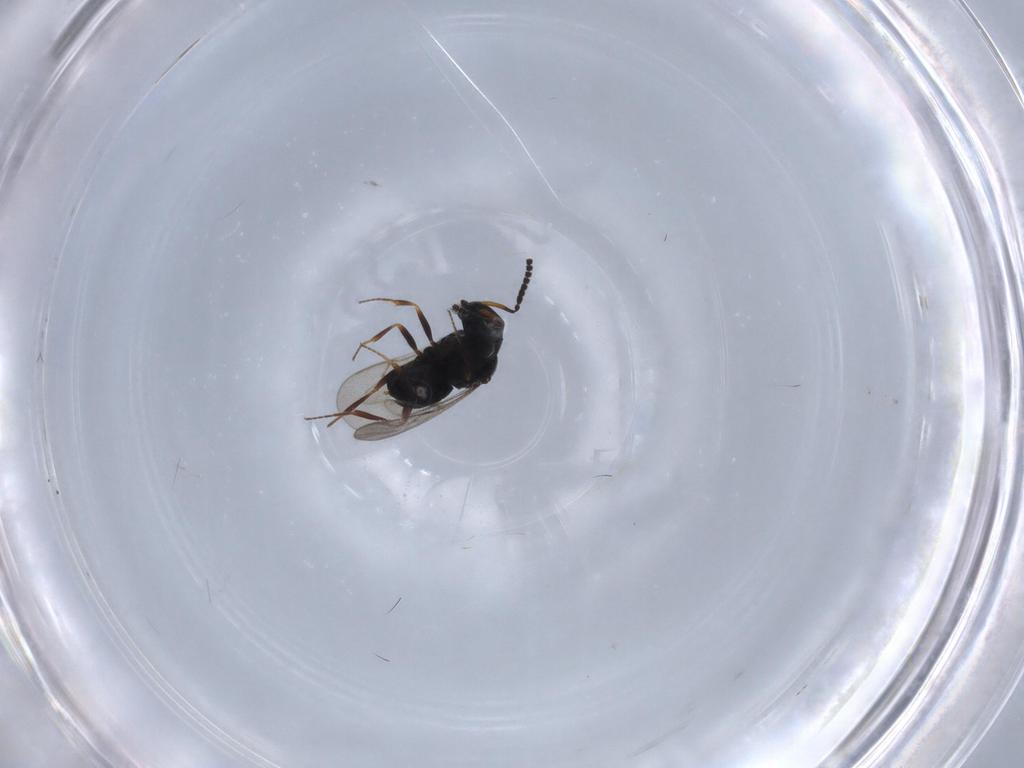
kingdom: Animalia
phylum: Arthropoda
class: Insecta
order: Hymenoptera
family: Scelionidae
